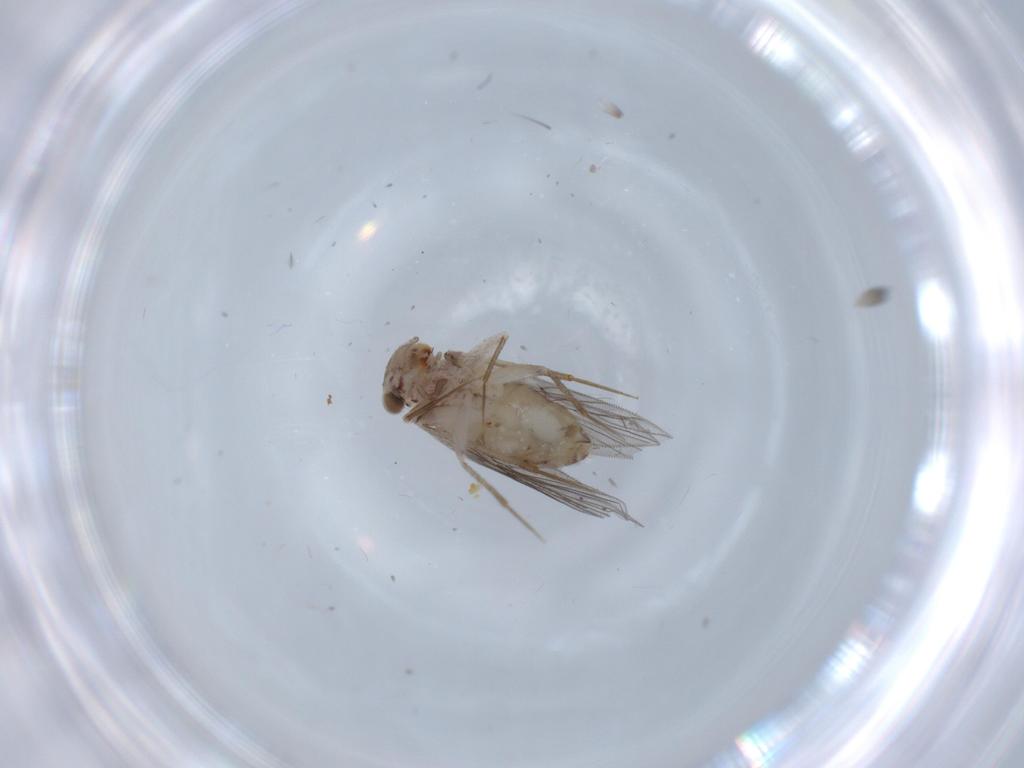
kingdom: Animalia
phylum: Arthropoda
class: Insecta
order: Psocodea
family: Lepidopsocidae
